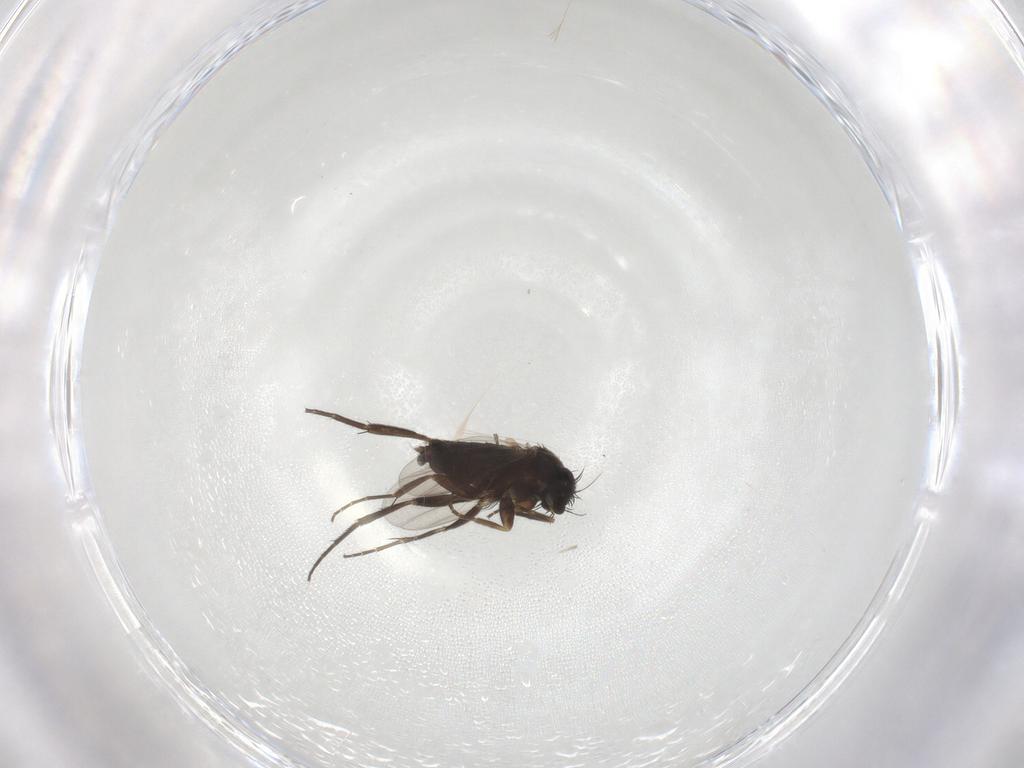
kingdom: Animalia
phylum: Arthropoda
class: Insecta
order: Diptera
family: Phoridae
